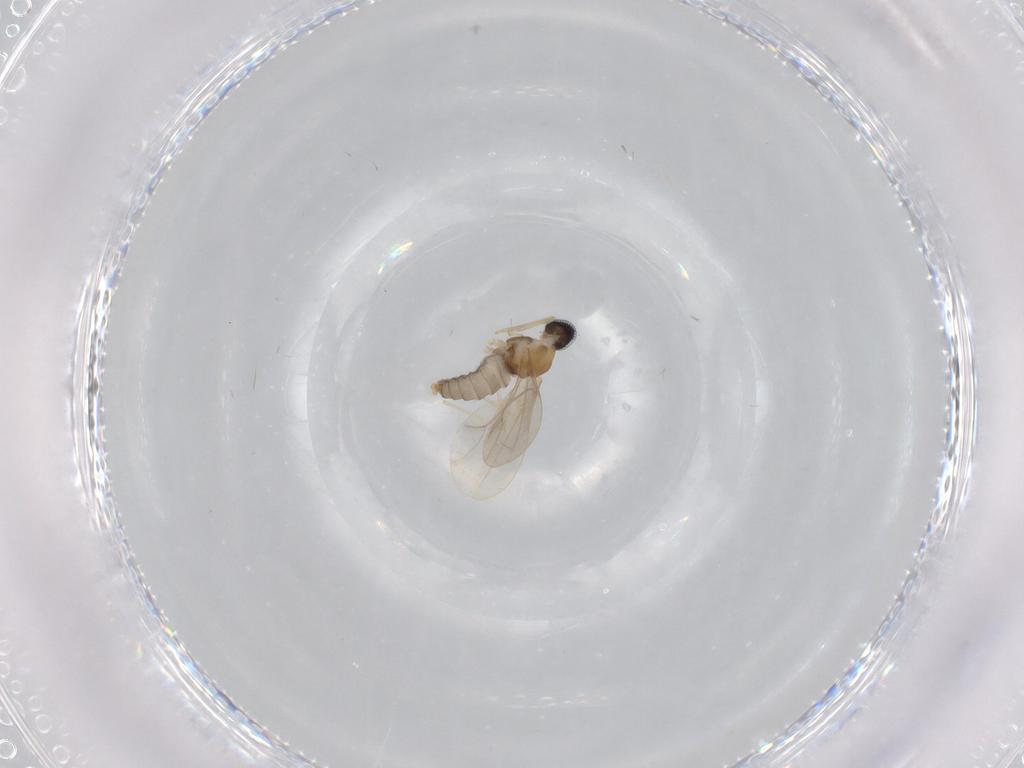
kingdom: Animalia
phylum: Arthropoda
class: Insecta
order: Diptera
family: Cecidomyiidae
